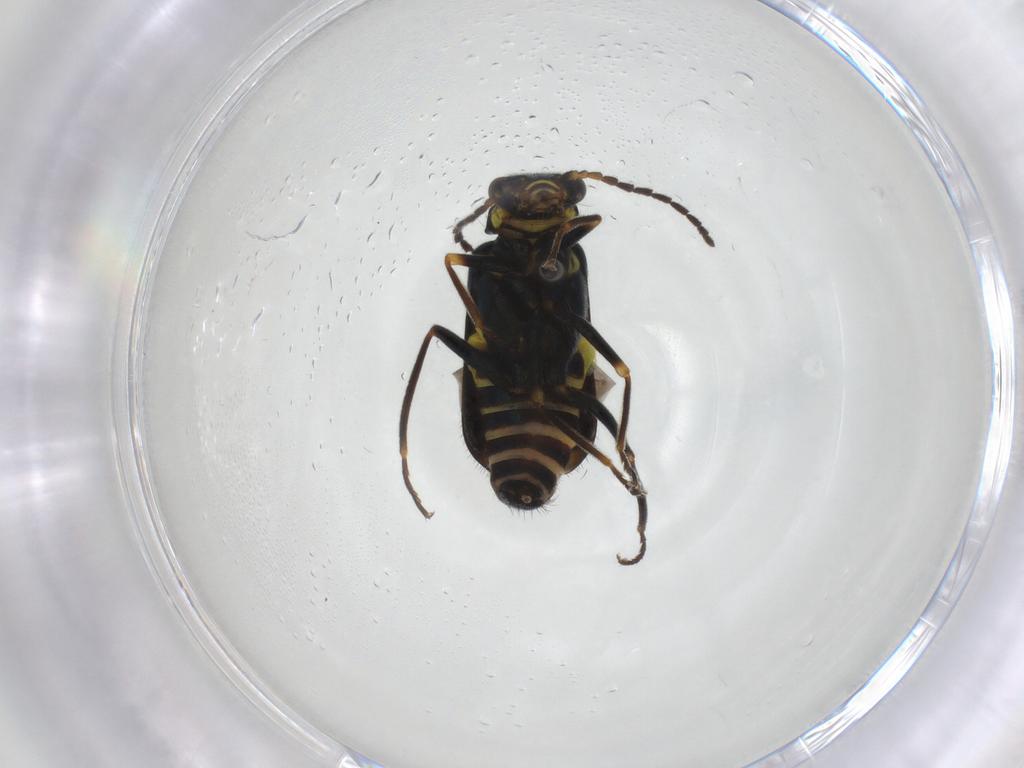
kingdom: Animalia
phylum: Arthropoda
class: Insecta
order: Coleoptera
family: Melyridae
